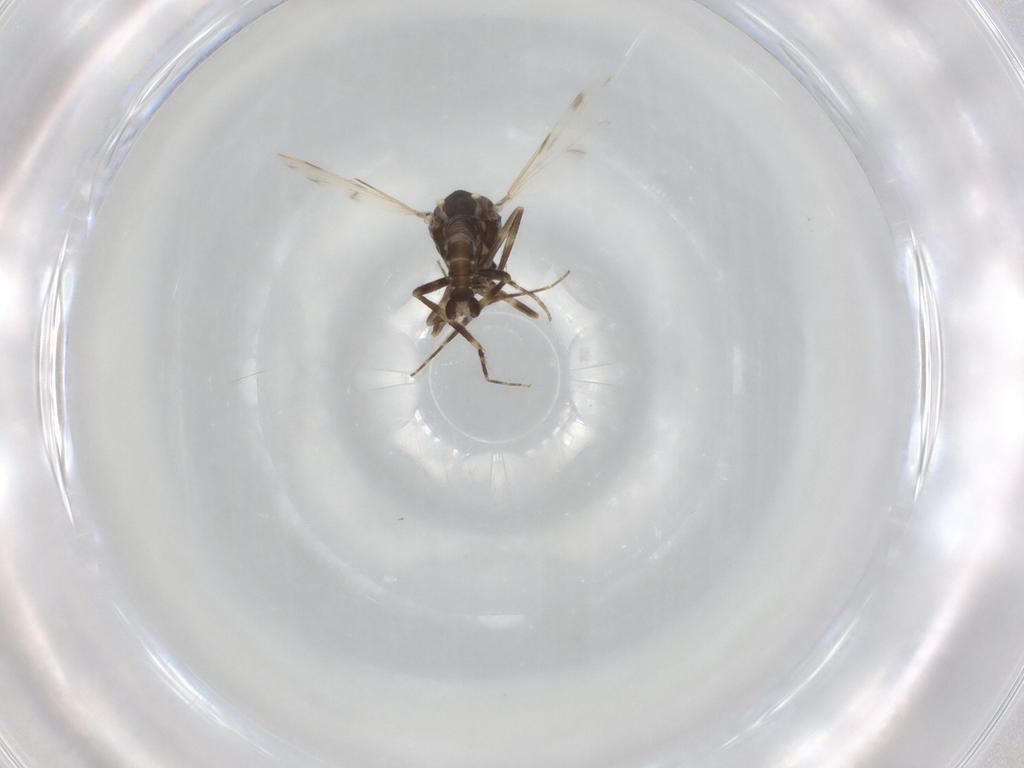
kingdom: Animalia
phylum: Arthropoda
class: Insecta
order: Diptera
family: Ceratopogonidae
